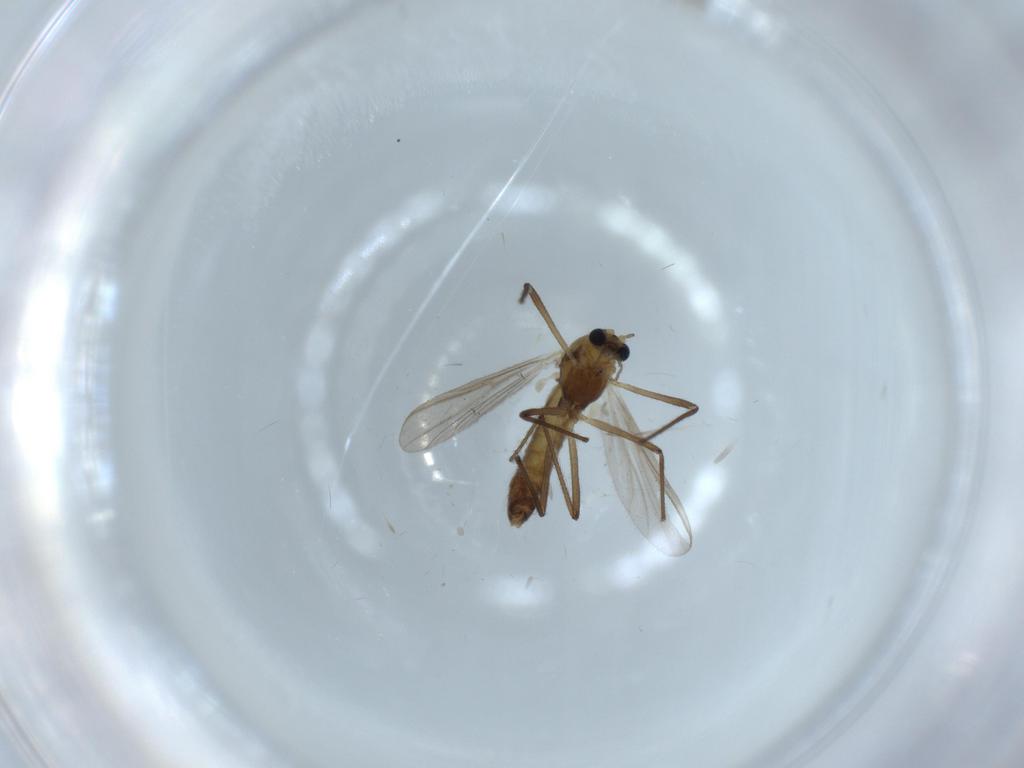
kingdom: Animalia
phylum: Arthropoda
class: Insecta
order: Diptera
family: Chironomidae
